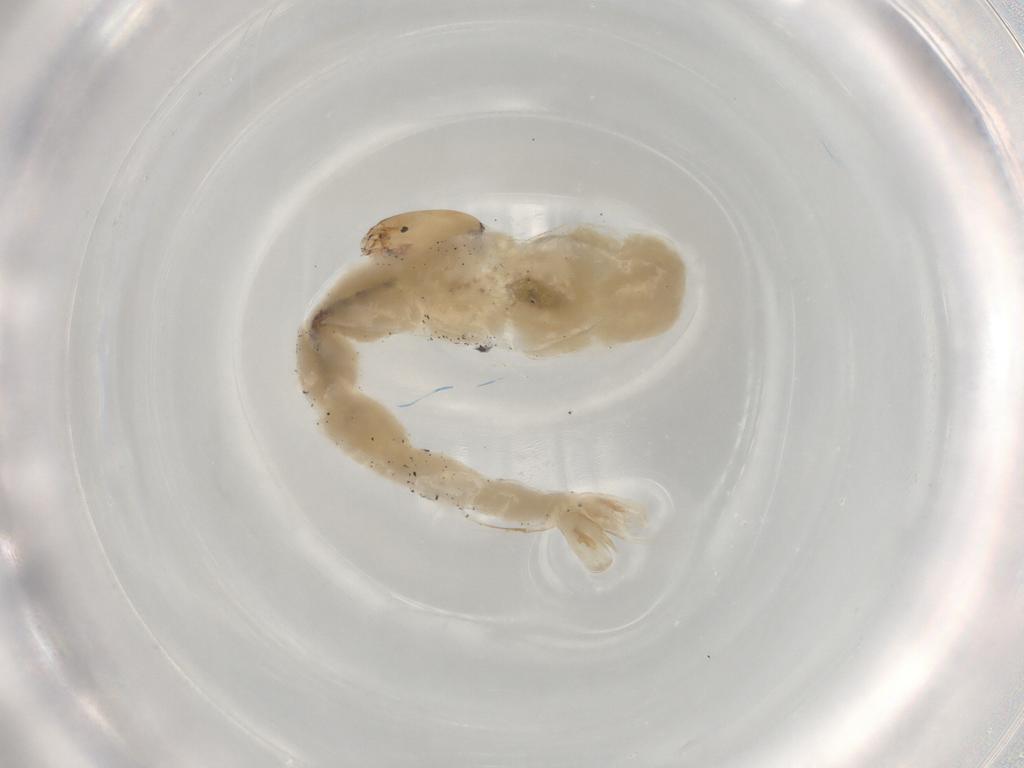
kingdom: Animalia
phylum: Arthropoda
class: Insecta
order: Diptera
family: Chironomidae
